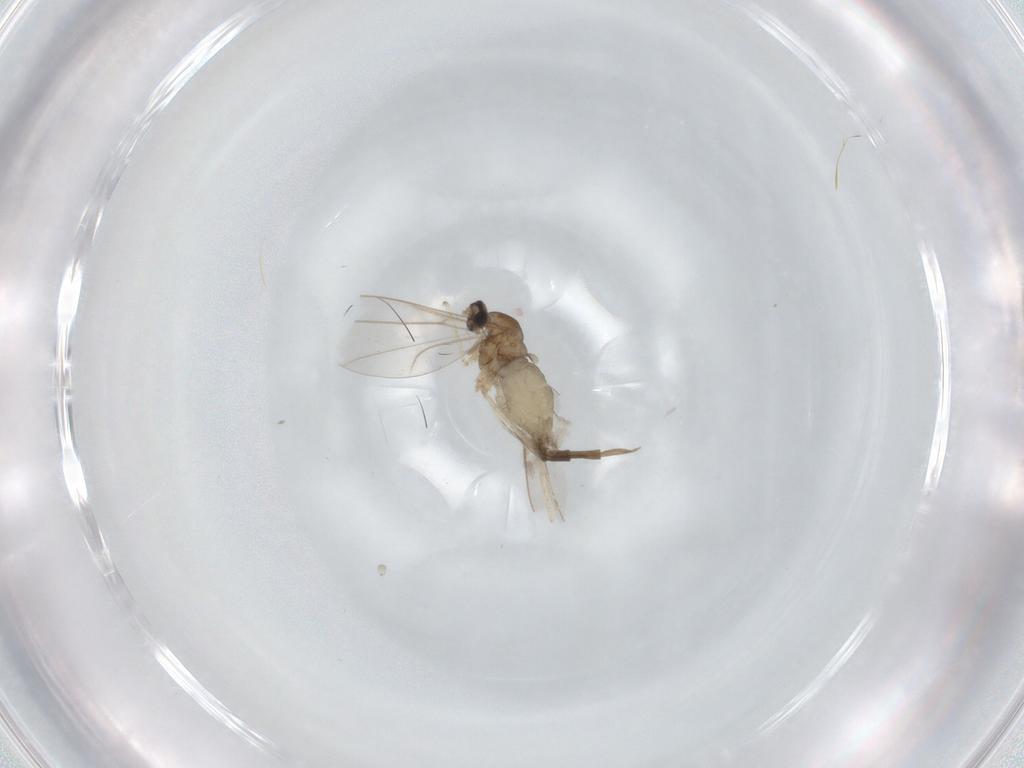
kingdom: Animalia
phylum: Arthropoda
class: Insecta
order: Diptera
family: Cecidomyiidae
